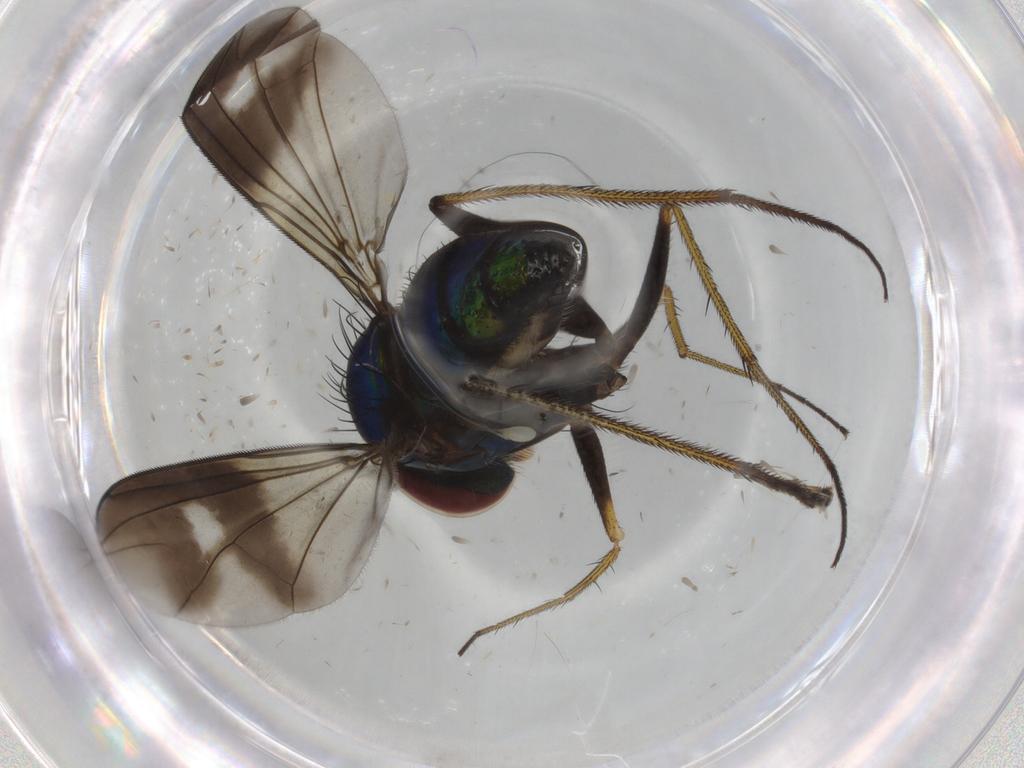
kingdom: Animalia
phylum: Arthropoda
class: Insecta
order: Diptera
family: Dolichopodidae
